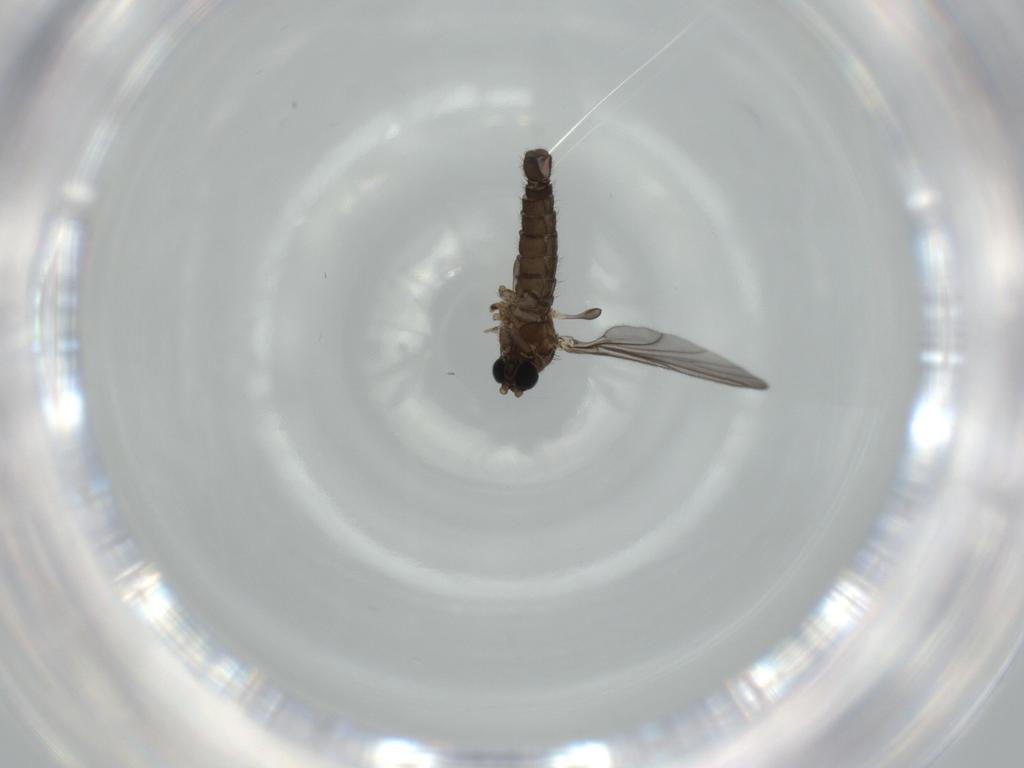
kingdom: Animalia
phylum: Arthropoda
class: Insecta
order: Diptera
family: Sciaridae
